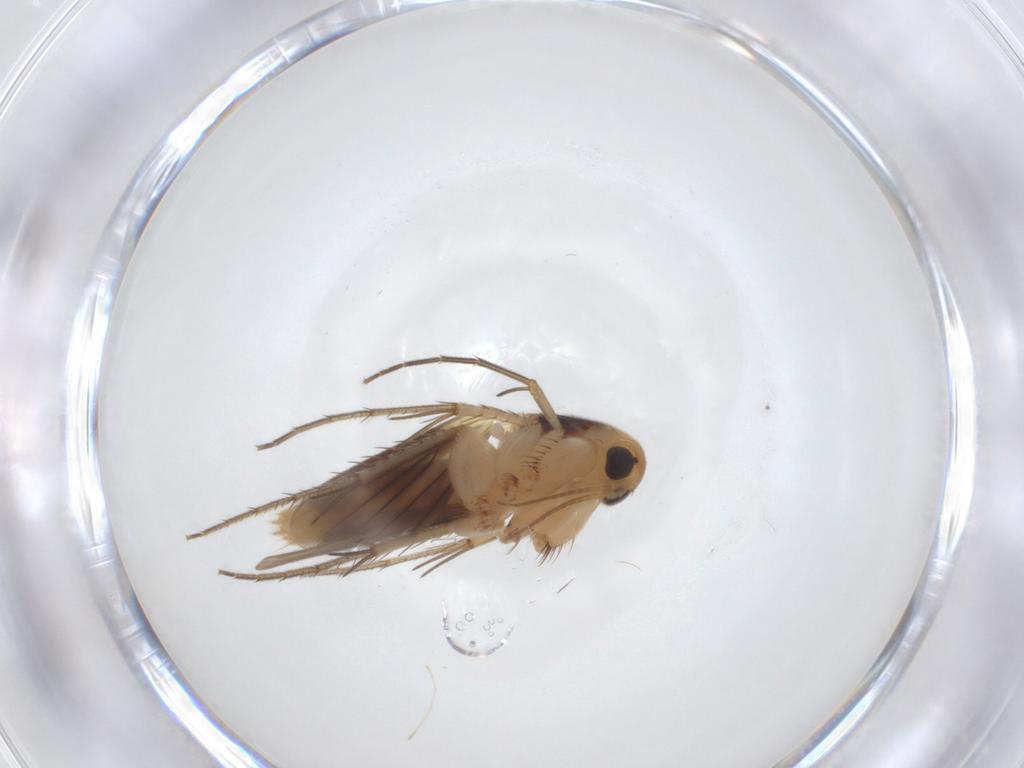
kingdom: Animalia
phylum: Arthropoda
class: Insecta
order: Diptera
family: Mycetophilidae
